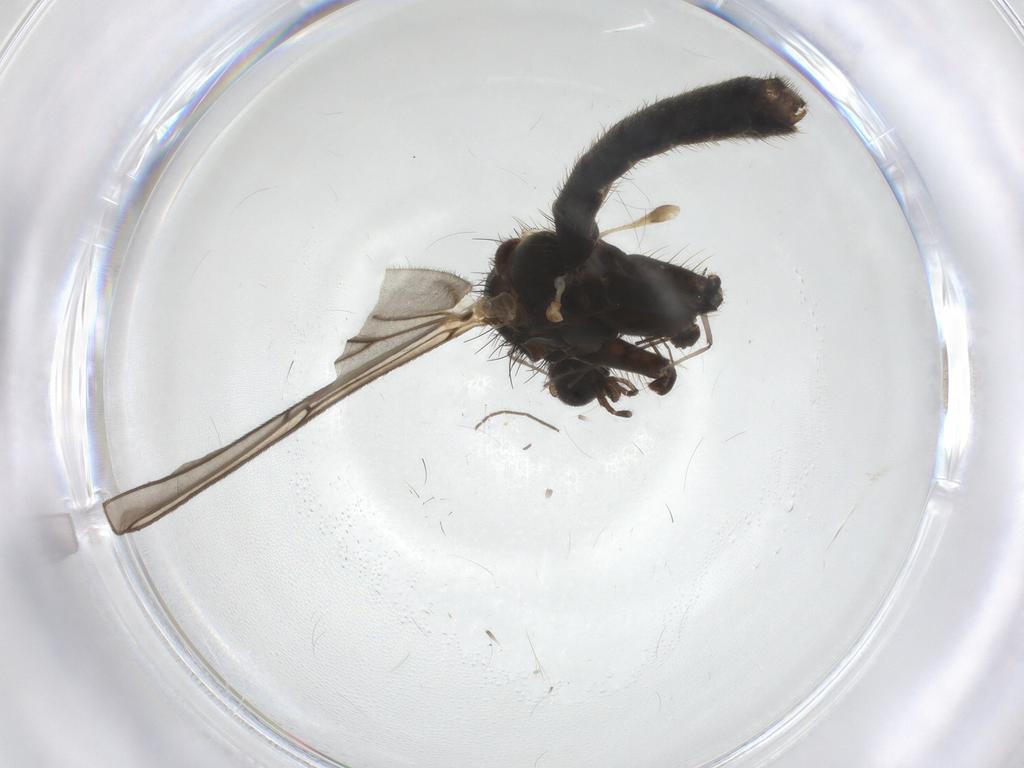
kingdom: Animalia
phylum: Arthropoda
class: Insecta
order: Diptera
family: Mycetophilidae
